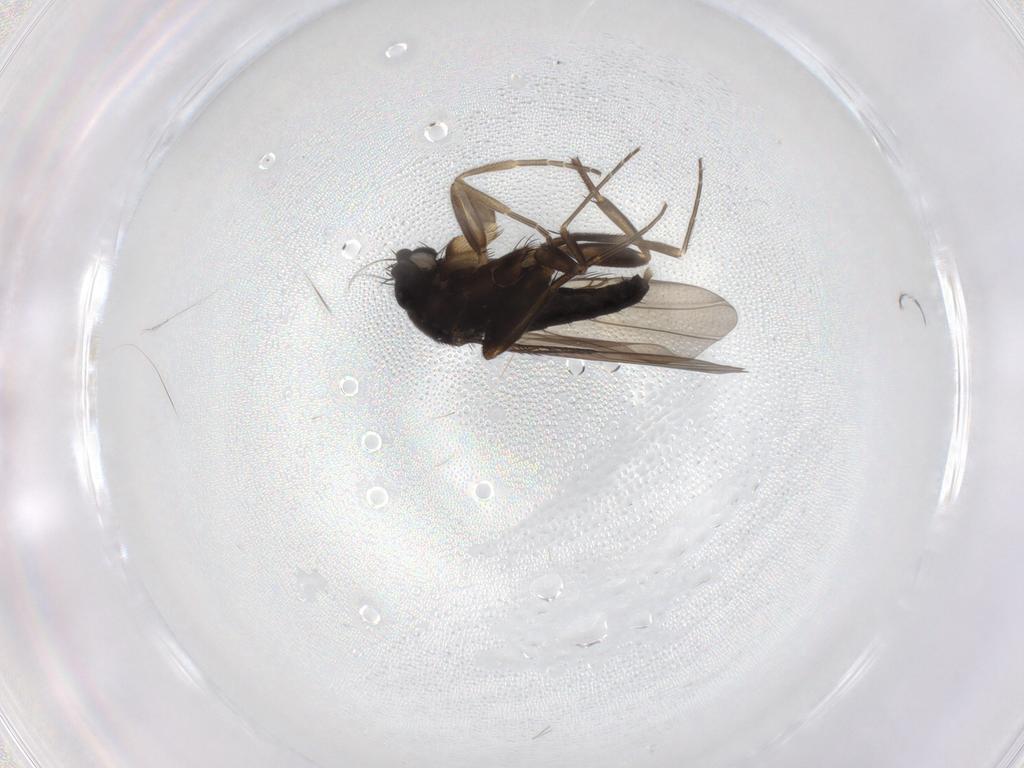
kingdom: Animalia
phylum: Arthropoda
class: Insecta
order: Diptera
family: Phoridae
